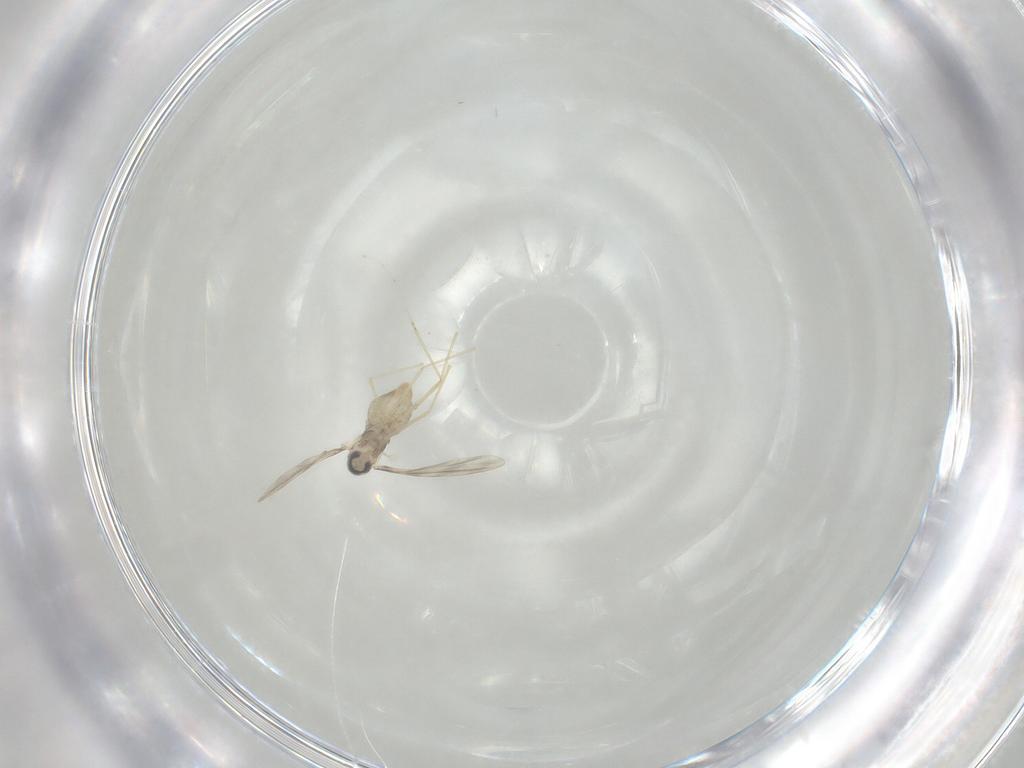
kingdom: Animalia
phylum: Arthropoda
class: Insecta
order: Diptera
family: Cecidomyiidae
